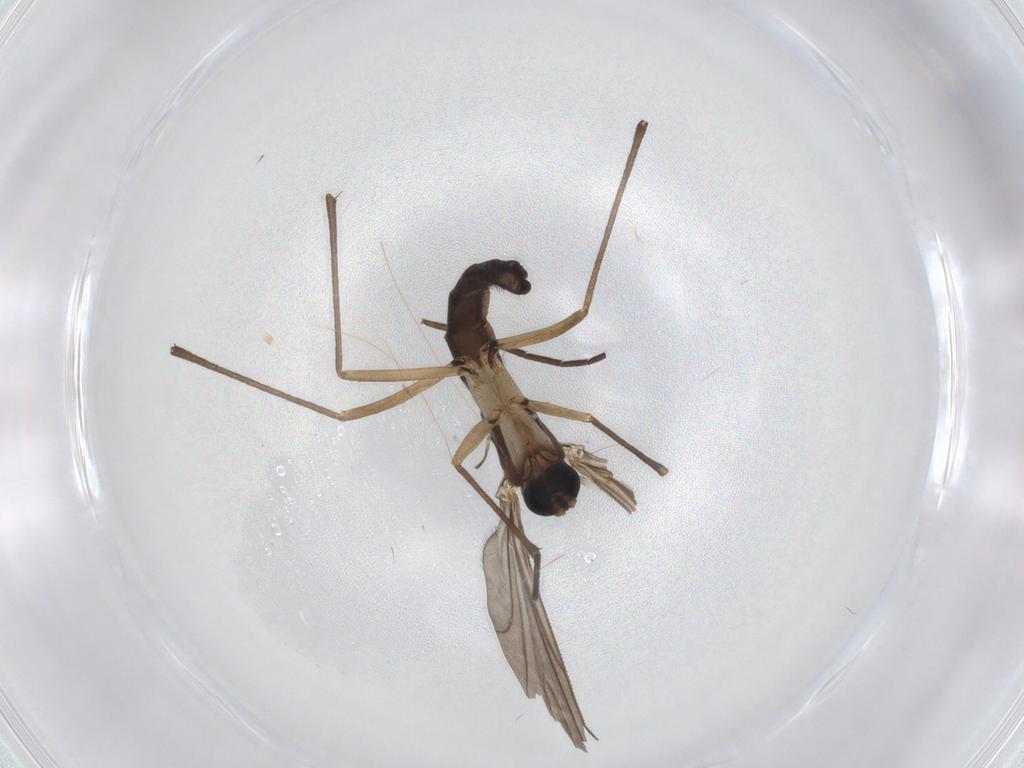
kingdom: Animalia
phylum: Arthropoda
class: Insecta
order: Diptera
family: Sciaridae
